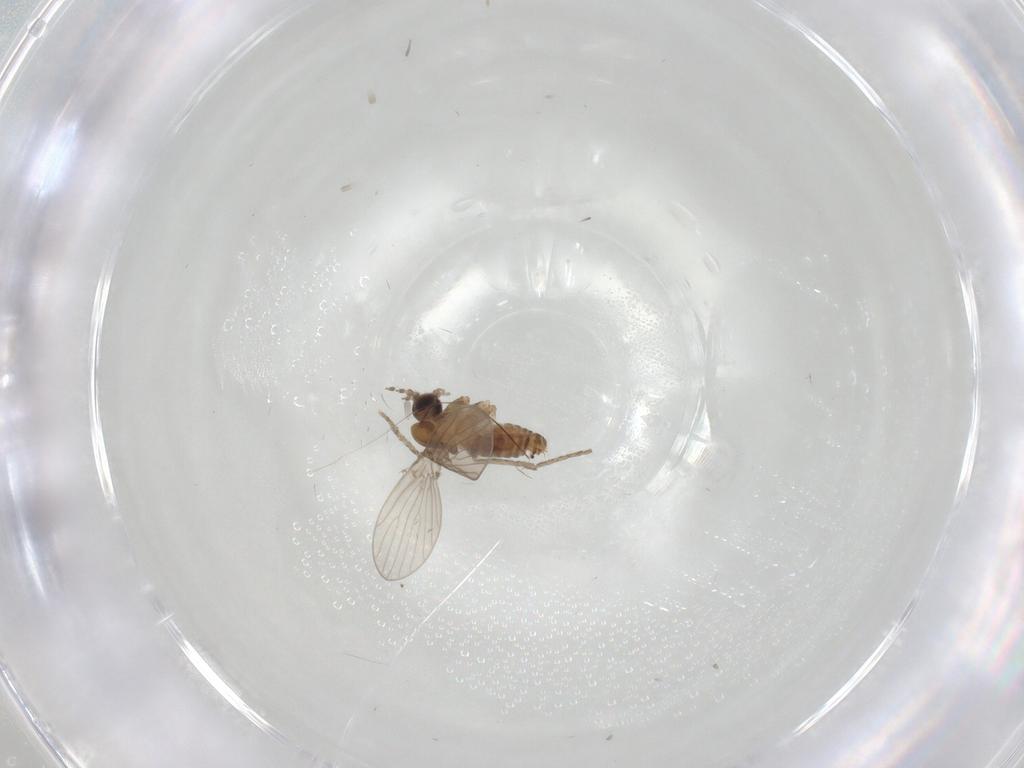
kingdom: Animalia
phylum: Arthropoda
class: Insecta
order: Diptera
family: Psychodidae
